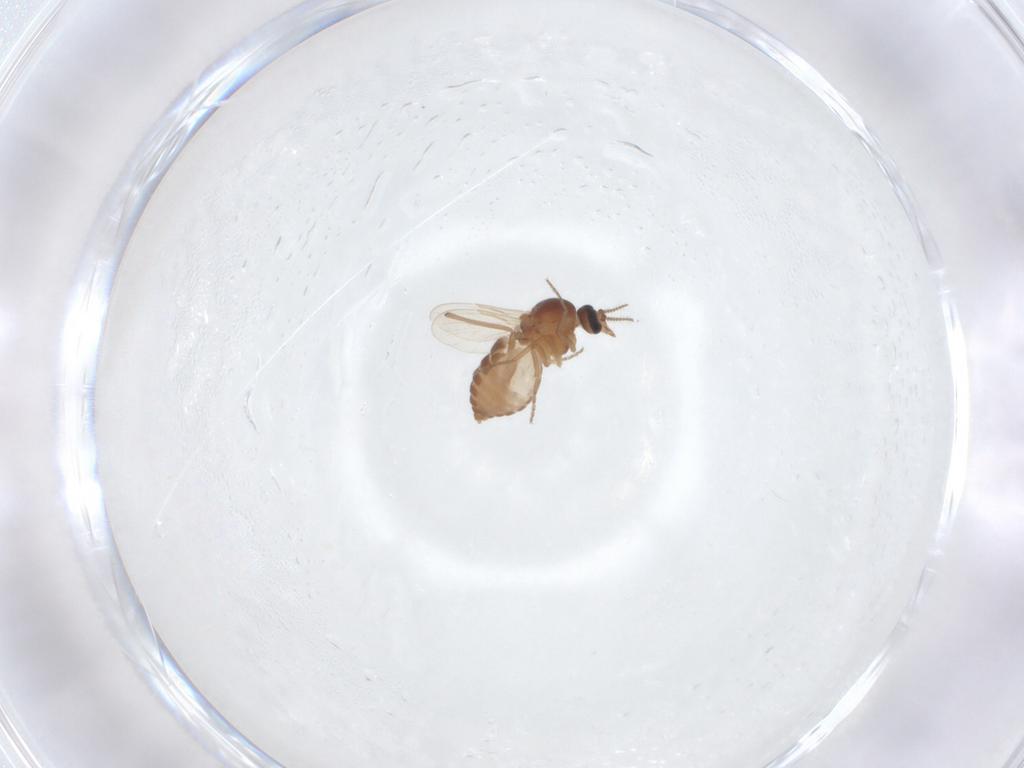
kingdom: Animalia
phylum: Arthropoda
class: Insecta
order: Diptera
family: Ceratopogonidae
